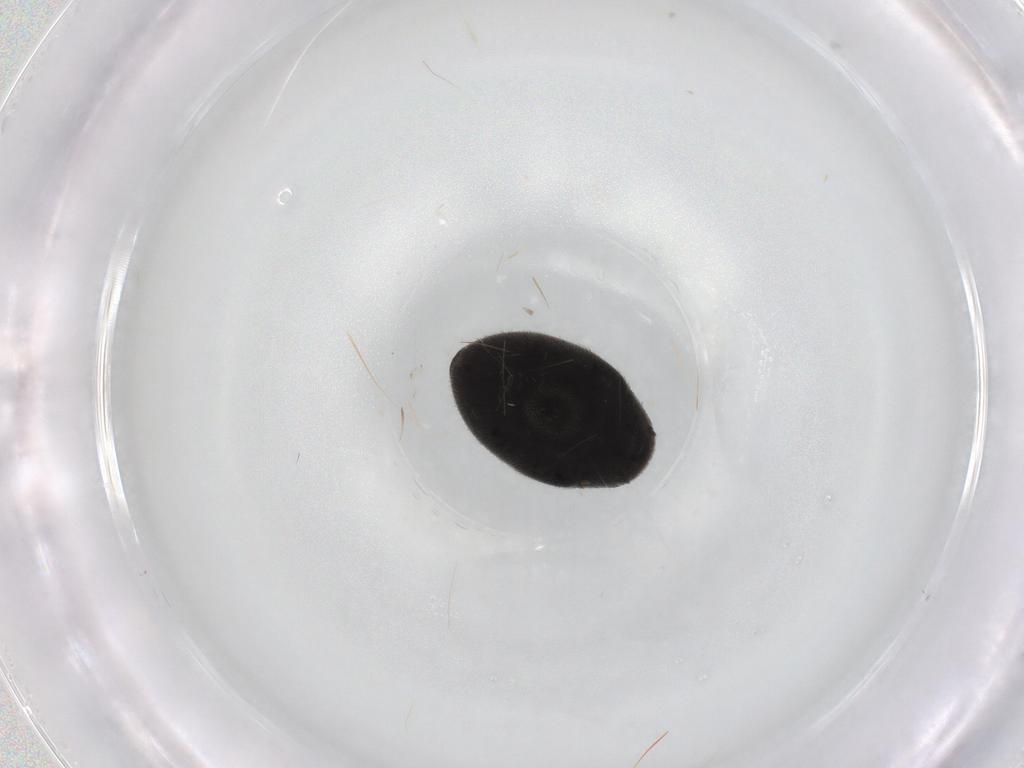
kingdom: Animalia
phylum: Arthropoda
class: Insecta
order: Coleoptera
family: Limnichidae
